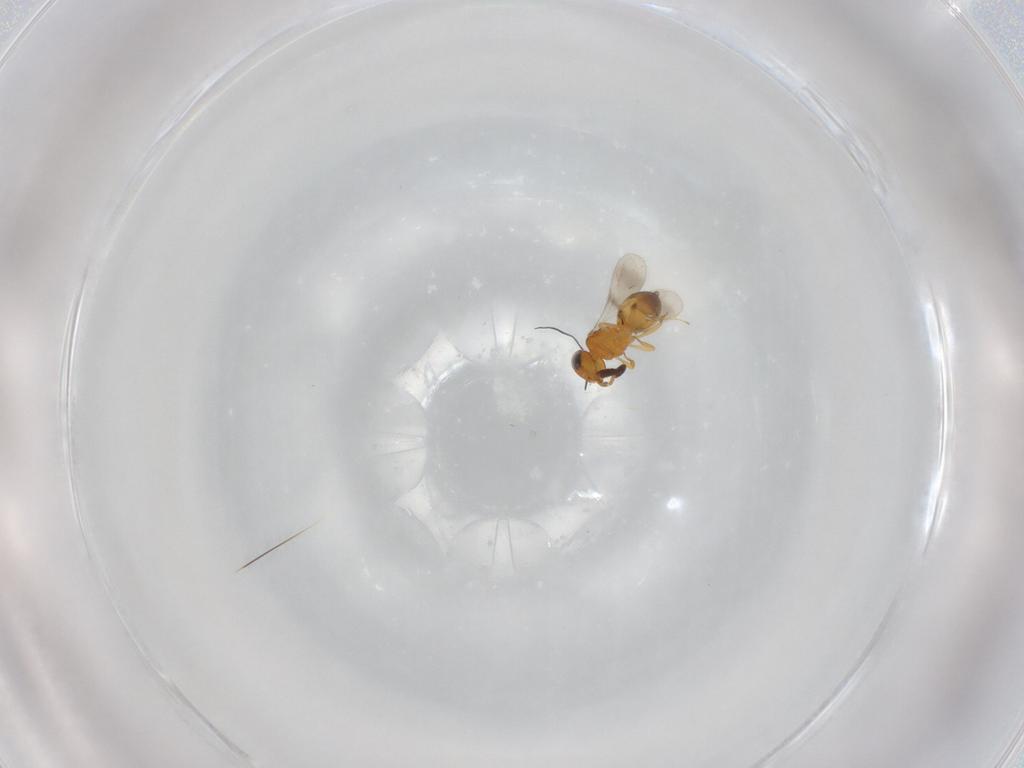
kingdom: Animalia
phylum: Arthropoda
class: Insecta
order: Hymenoptera
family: Scelionidae
